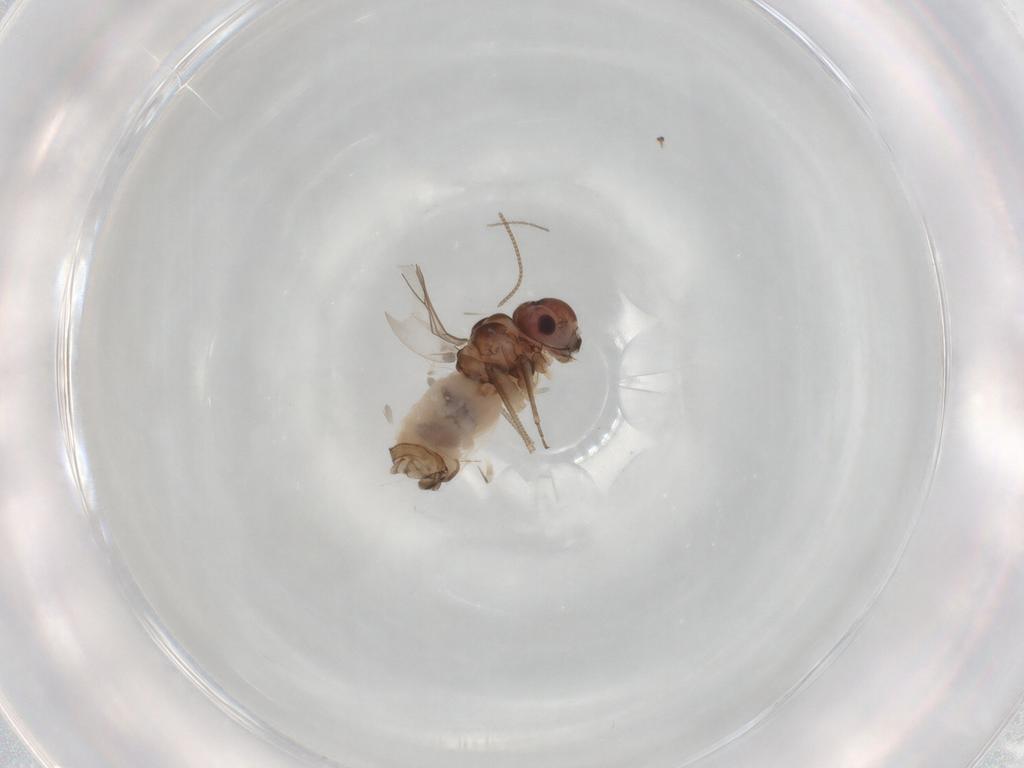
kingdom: Animalia
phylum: Arthropoda
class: Insecta
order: Psocodea
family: Peripsocidae
